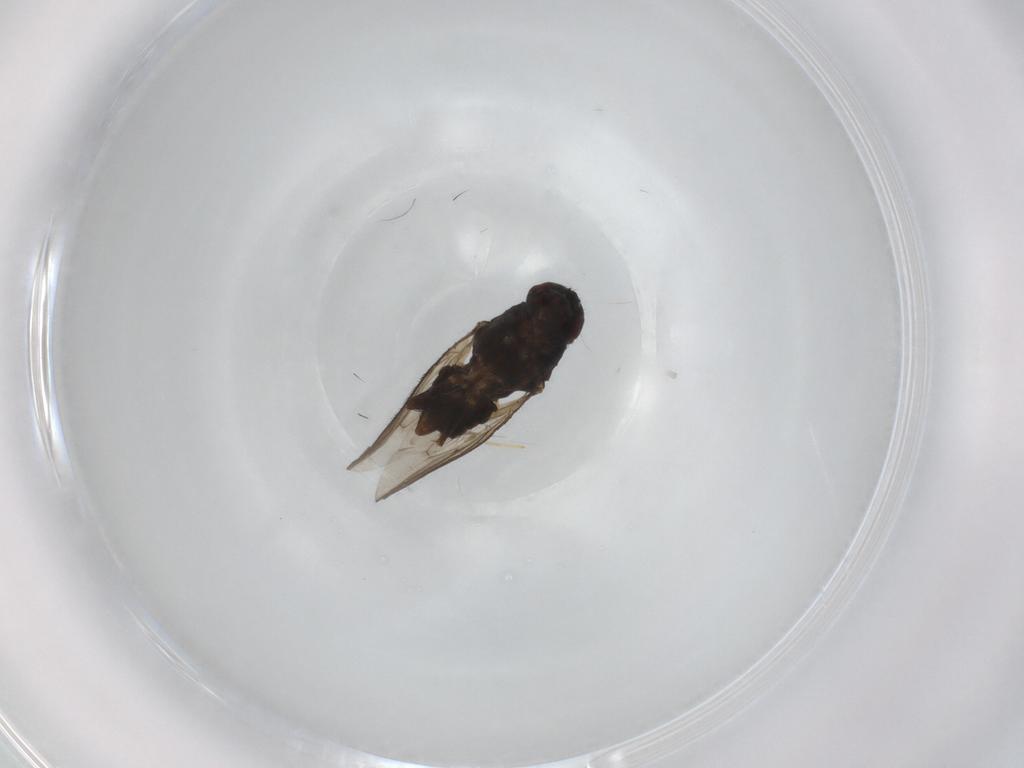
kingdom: Animalia
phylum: Arthropoda
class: Insecta
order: Diptera
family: Sphaeroceridae
